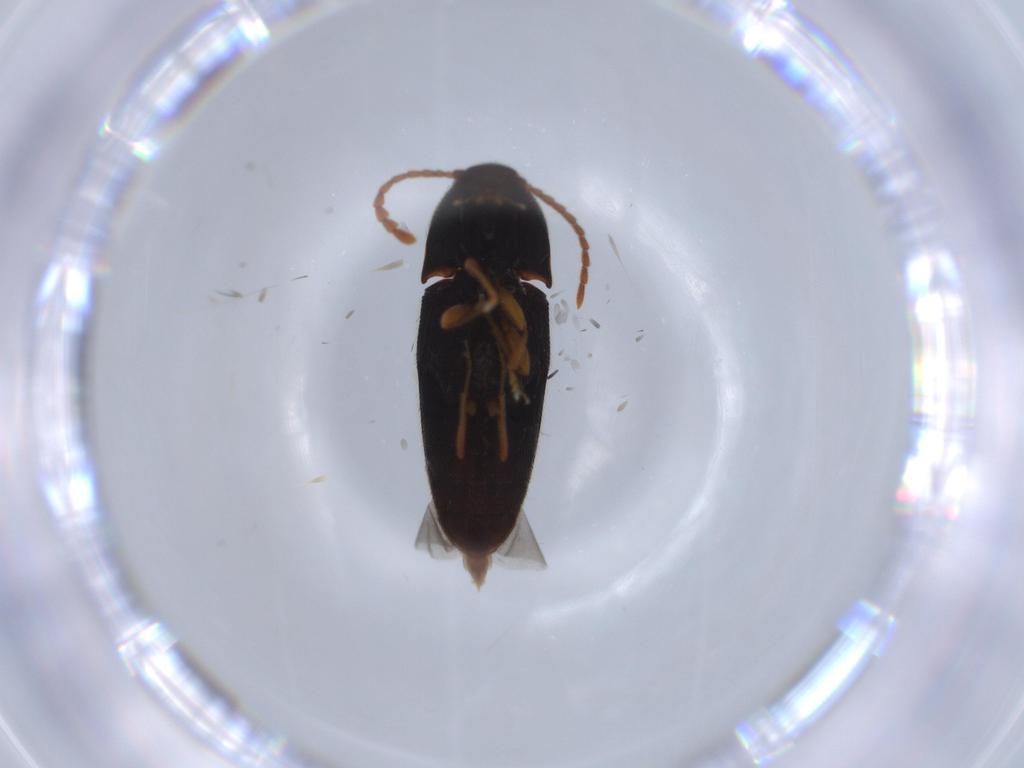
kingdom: Animalia
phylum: Arthropoda
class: Insecta
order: Coleoptera
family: Elateridae
